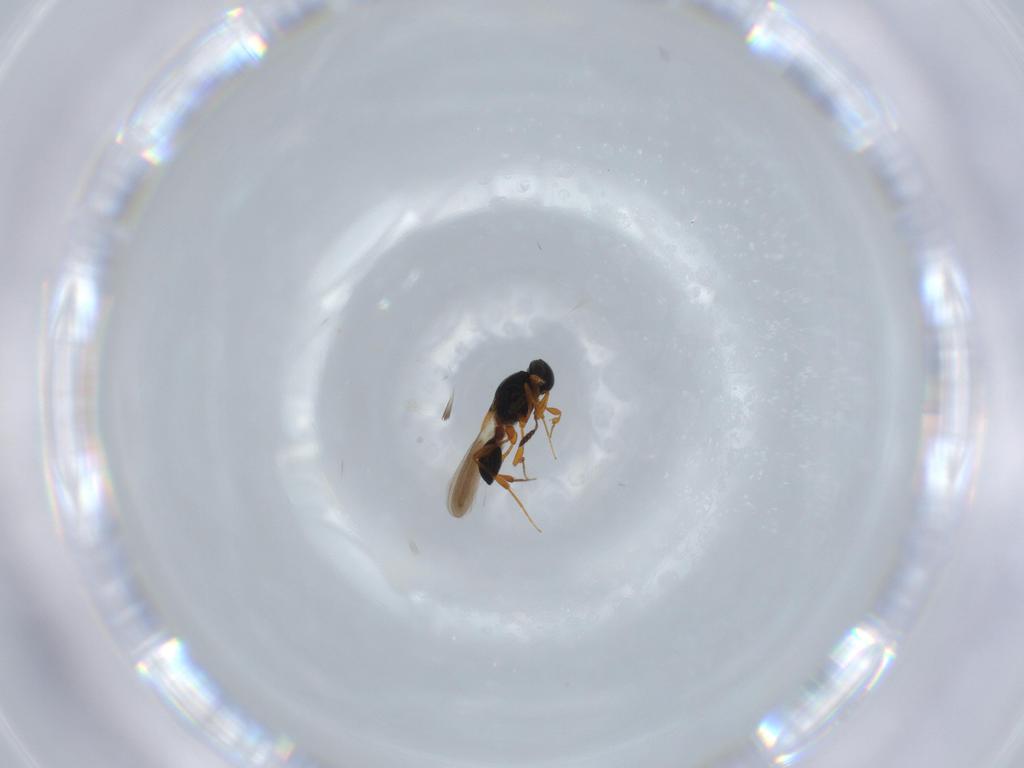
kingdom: Animalia
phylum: Arthropoda
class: Insecta
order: Hymenoptera
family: Platygastridae
